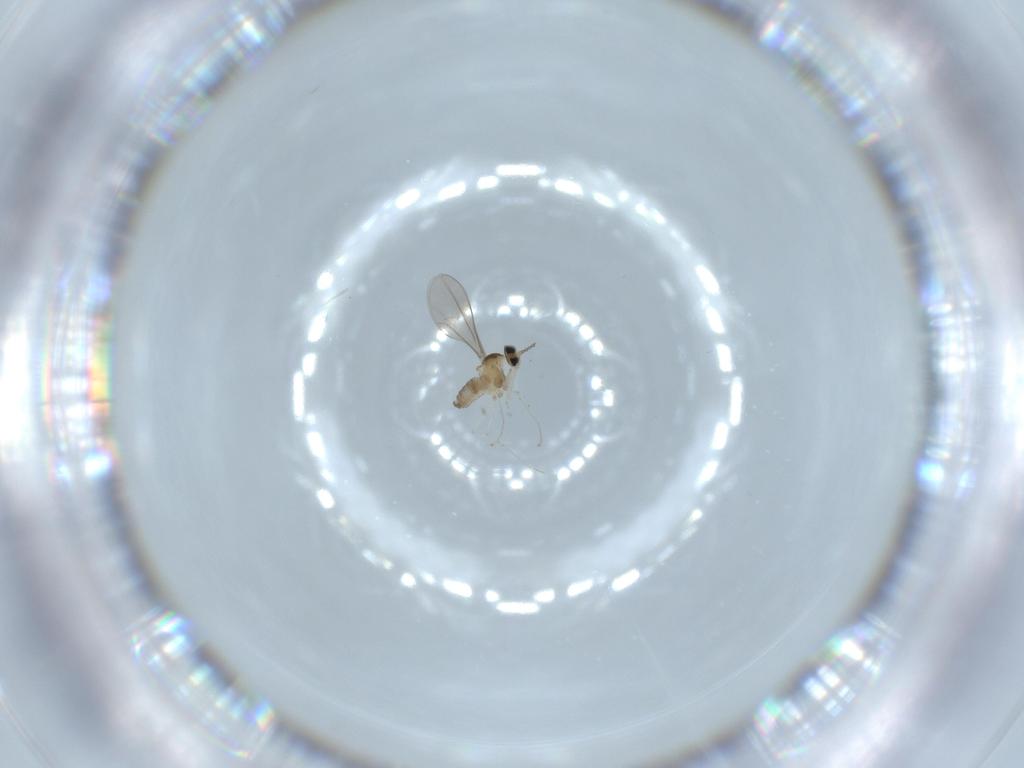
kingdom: Animalia
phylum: Arthropoda
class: Insecta
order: Diptera
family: Cecidomyiidae
